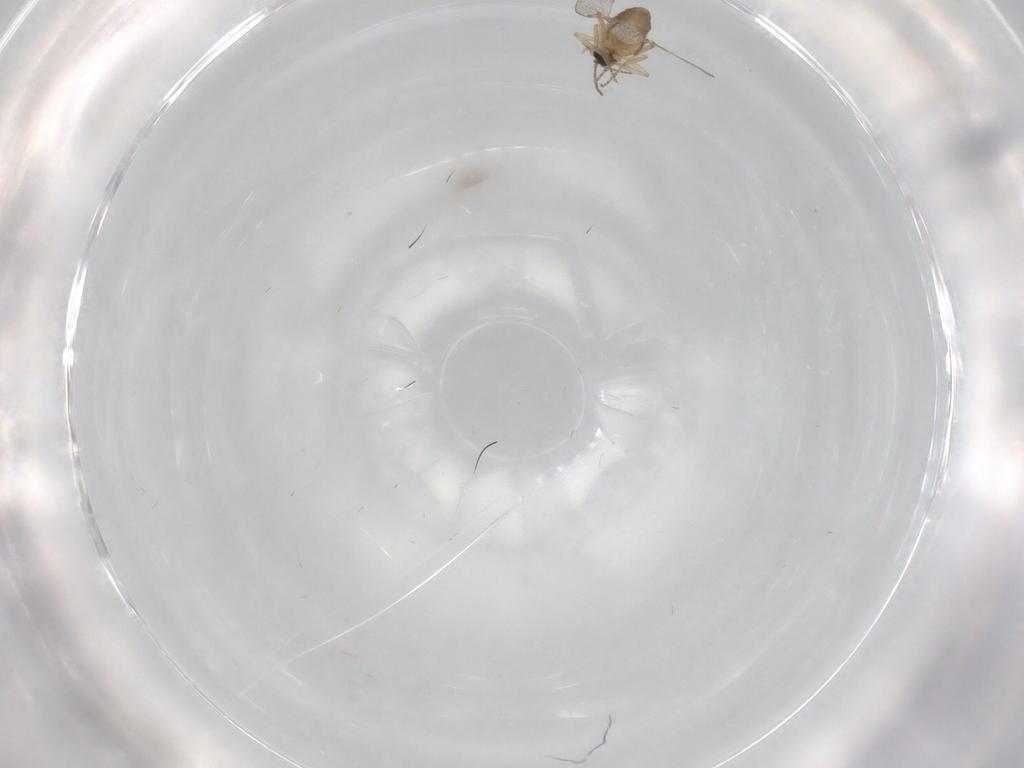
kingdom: Animalia
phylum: Arthropoda
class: Insecta
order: Diptera
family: Ceratopogonidae
